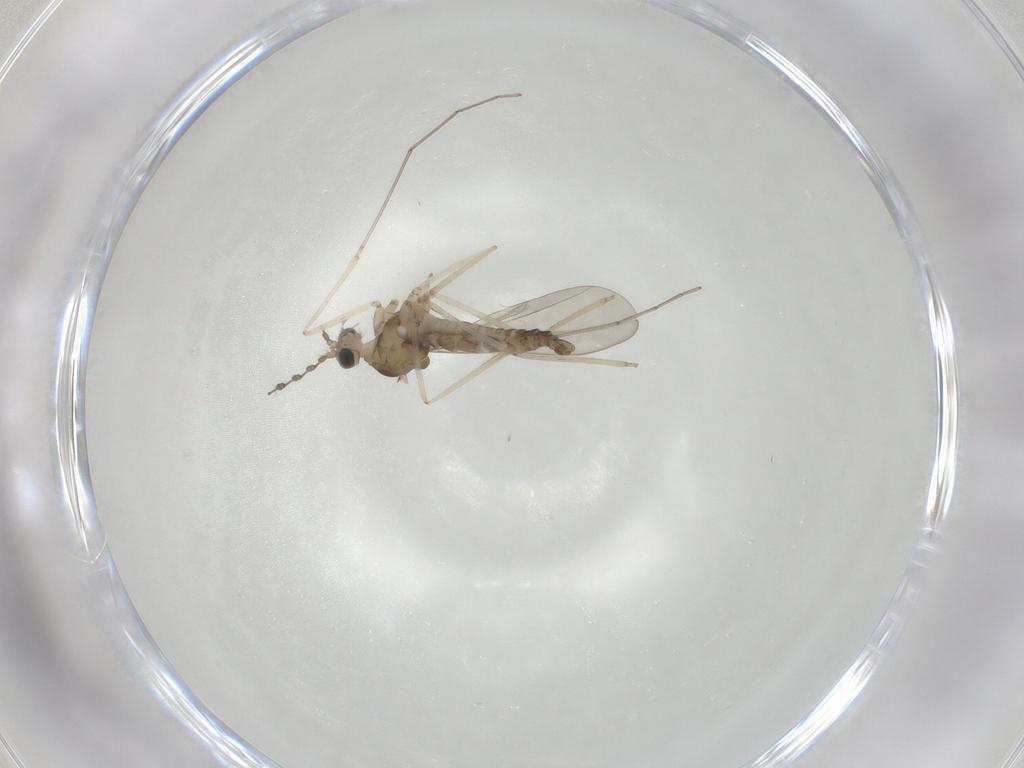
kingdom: Animalia
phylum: Arthropoda
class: Insecta
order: Diptera
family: Cecidomyiidae
